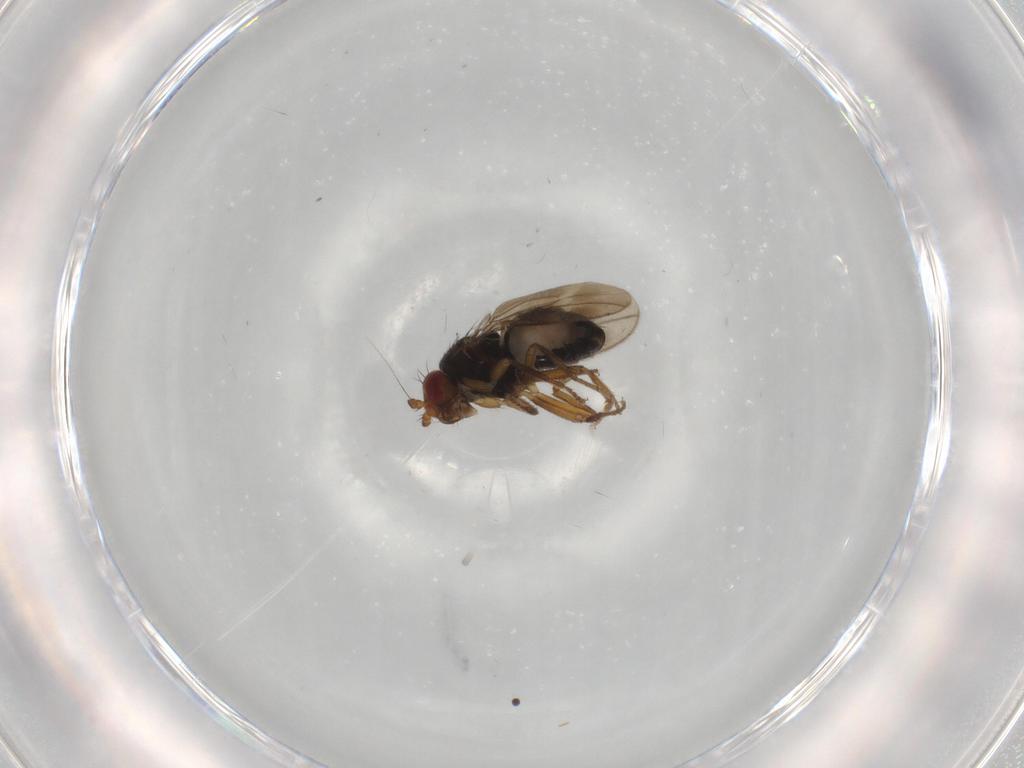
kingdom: Animalia
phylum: Arthropoda
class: Insecta
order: Diptera
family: Sphaeroceridae
